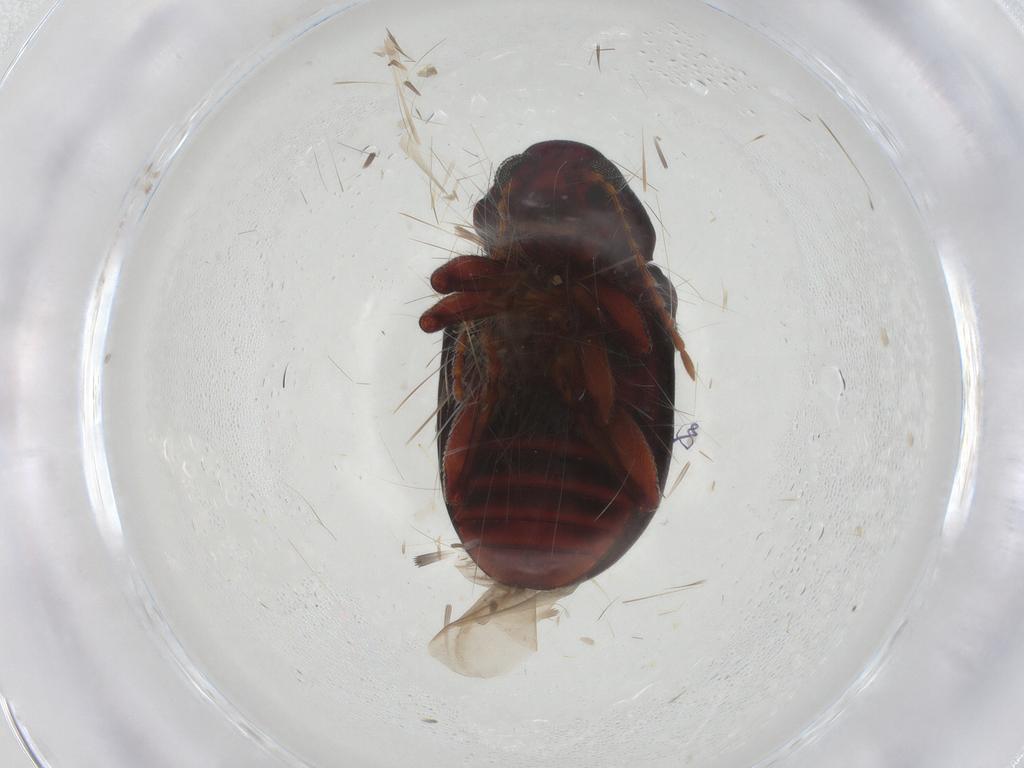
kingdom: Animalia
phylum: Arthropoda
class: Insecta
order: Coleoptera
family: Chrysomelidae
